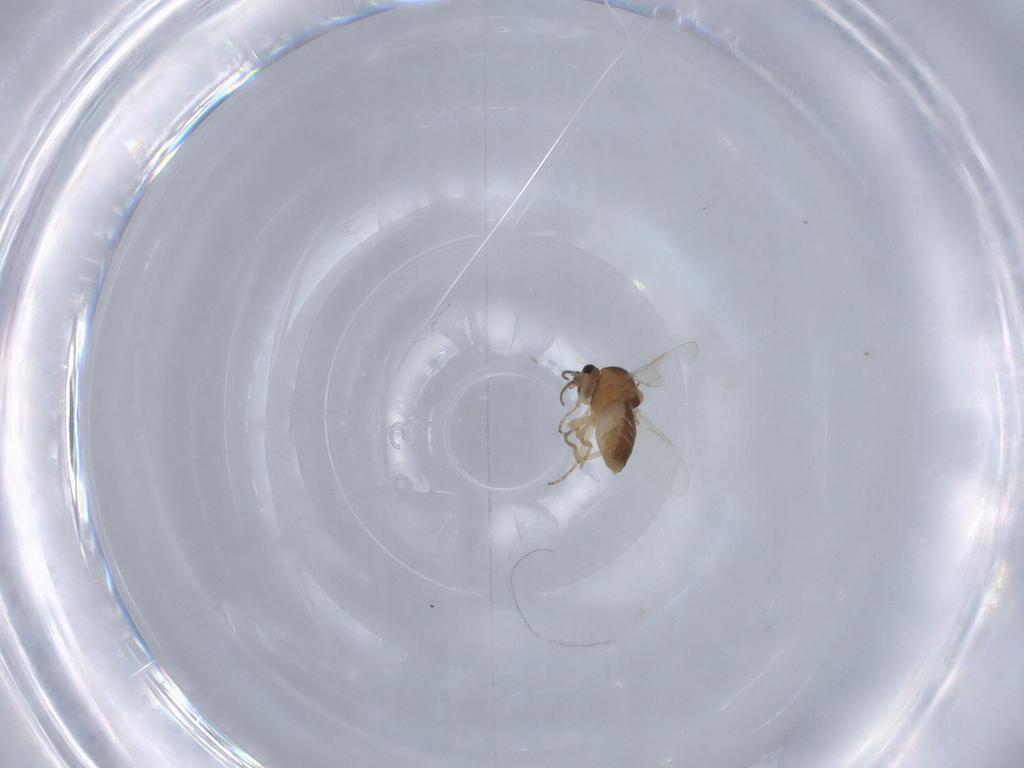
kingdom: Animalia
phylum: Arthropoda
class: Insecta
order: Diptera
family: Ceratopogonidae
